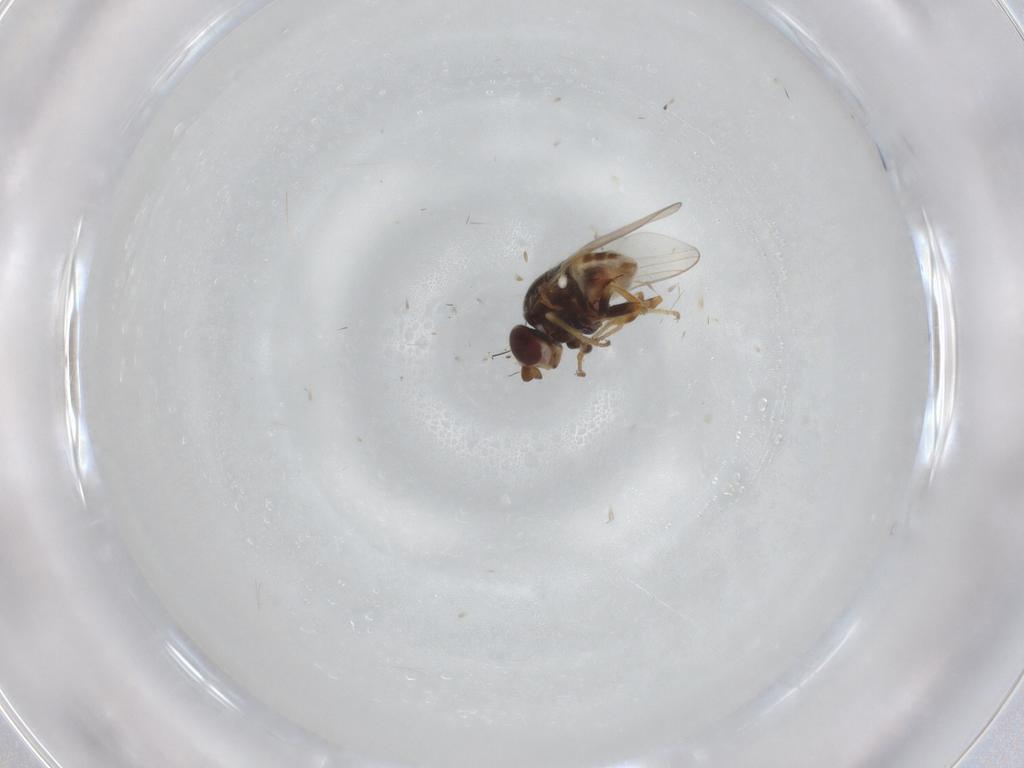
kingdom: Animalia
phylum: Arthropoda
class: Insecta
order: Diptera
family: Chloropidae
